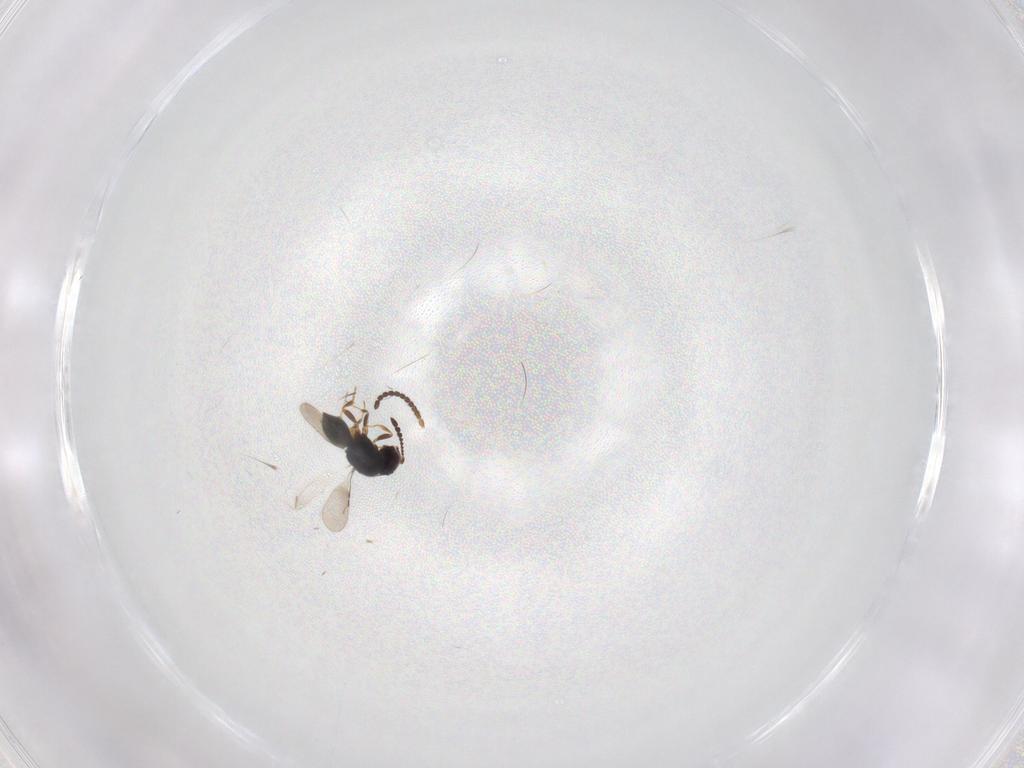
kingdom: Animalia
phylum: Arthropoda
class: Insecta
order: Hymenoptera
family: Bethylidae
